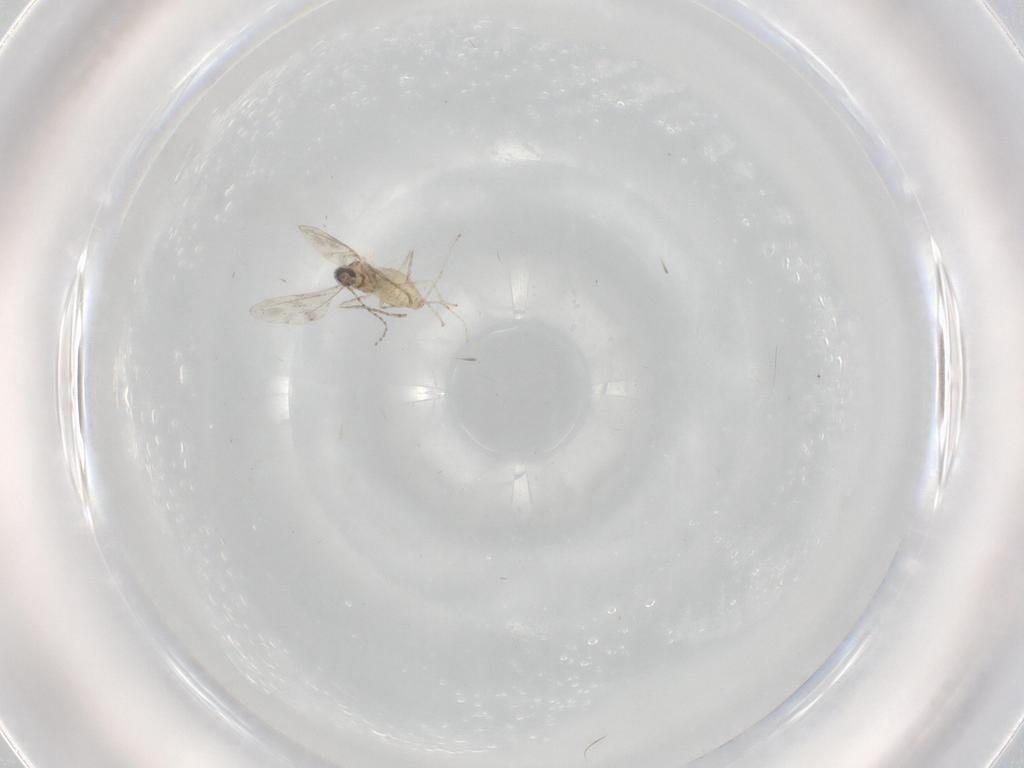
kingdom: Animalia
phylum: Arthropoda
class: Insecta
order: Diptera
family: Cecidomyiidae
